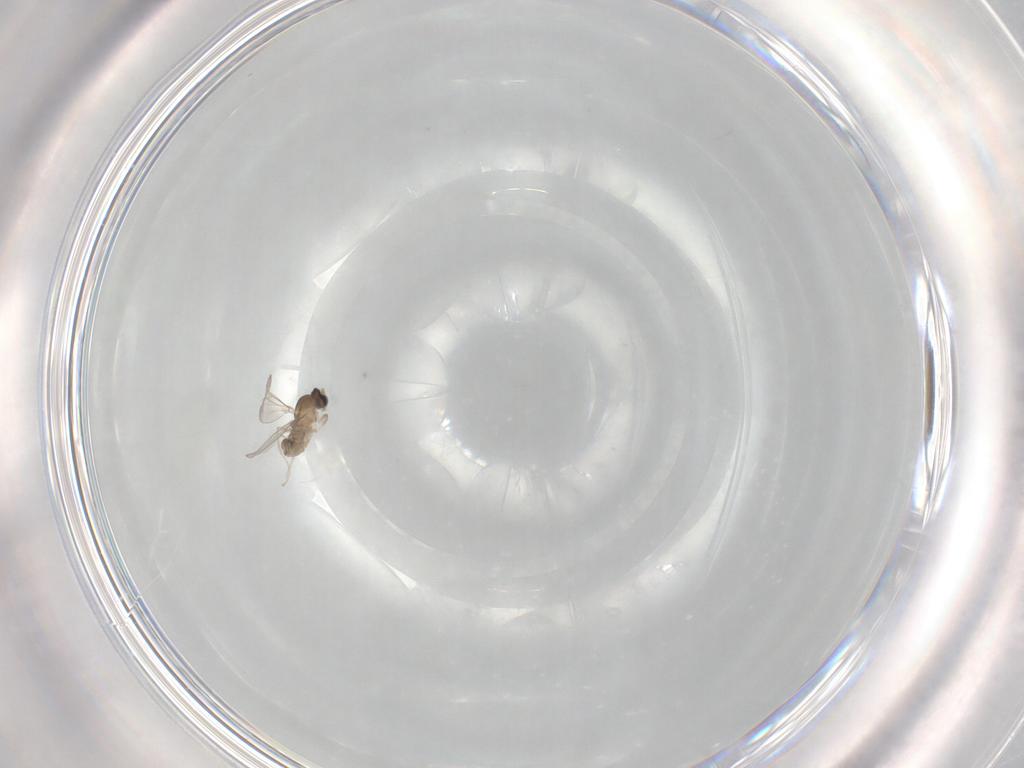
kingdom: Animalia
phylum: Arthropoda
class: Insecta
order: Diptera
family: Cecidomyiidae
